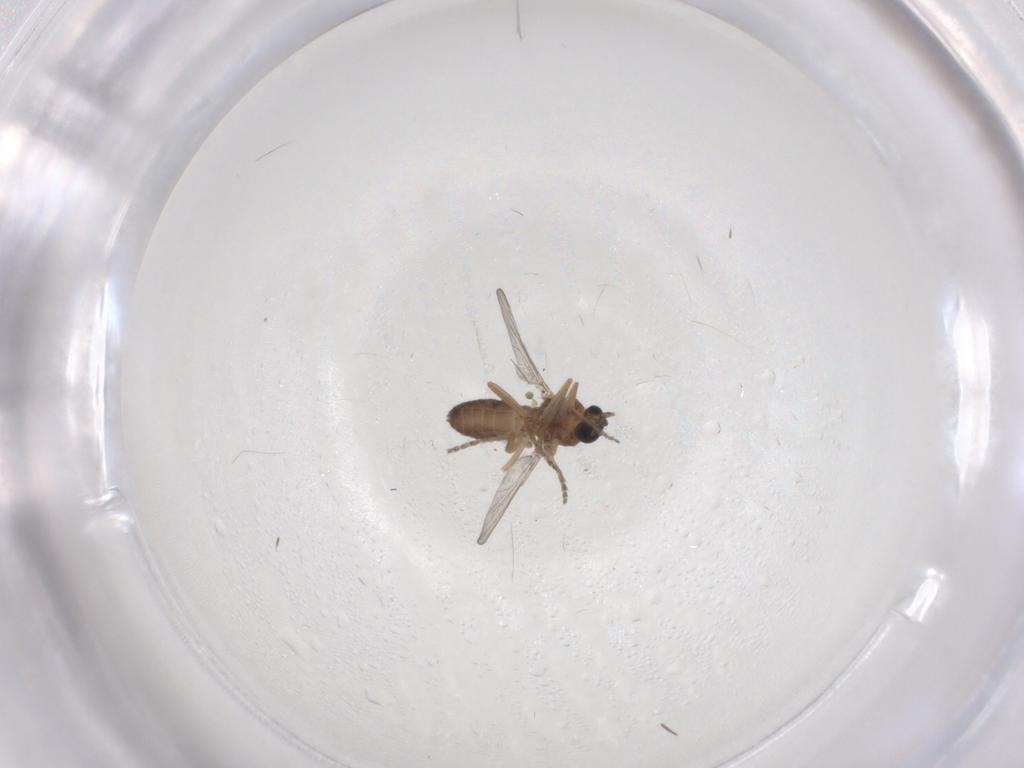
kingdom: Animalia
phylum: Arthropoda
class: Insecta
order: Diptera
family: Ceratopogonidae
